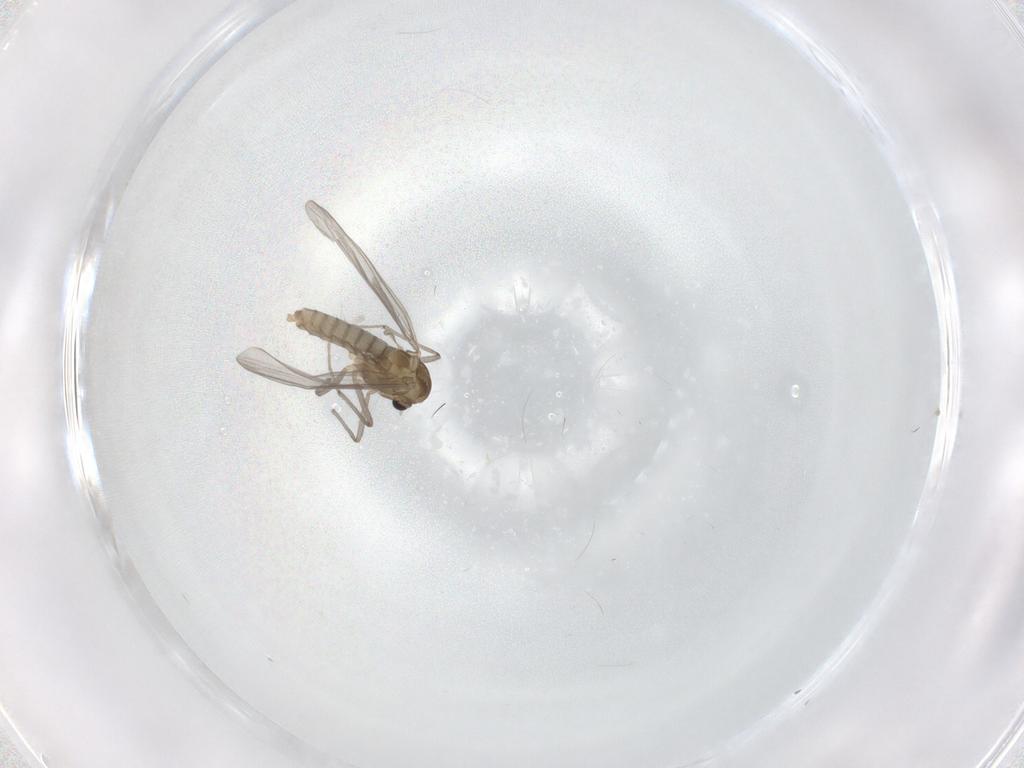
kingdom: Animalia
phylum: Arthropoda
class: Insecta
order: Diptera
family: Chironomidae
